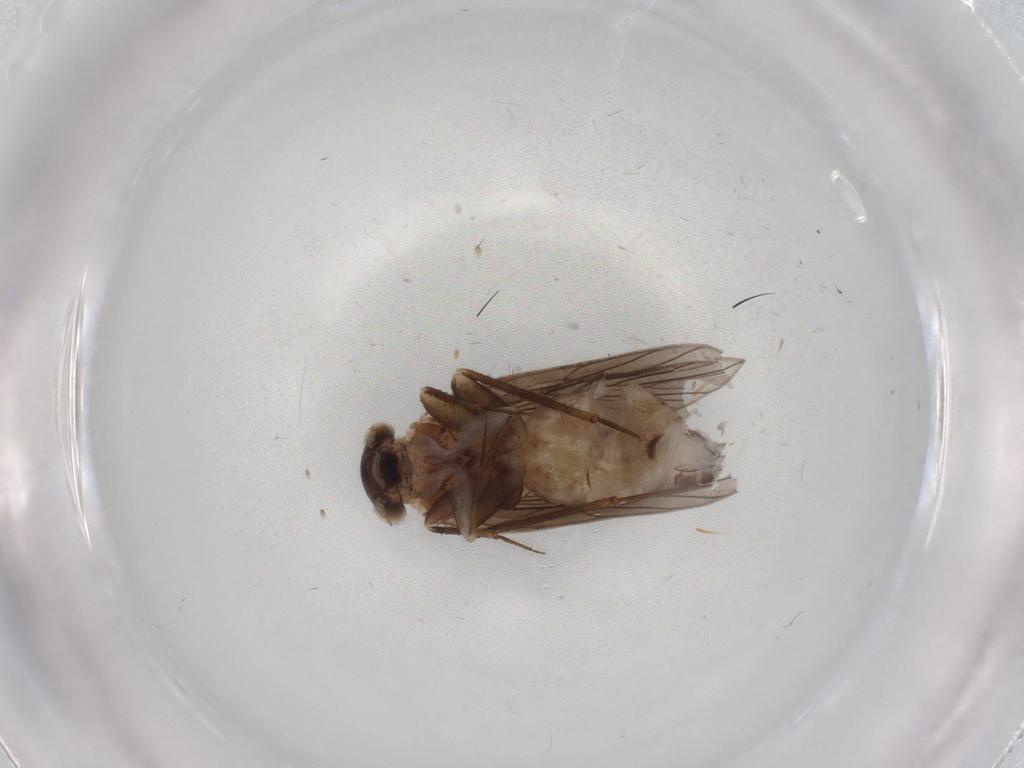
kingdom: Animalia
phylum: Arthropoda
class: Insecta
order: Psocodea
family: Lepidopsocidae
